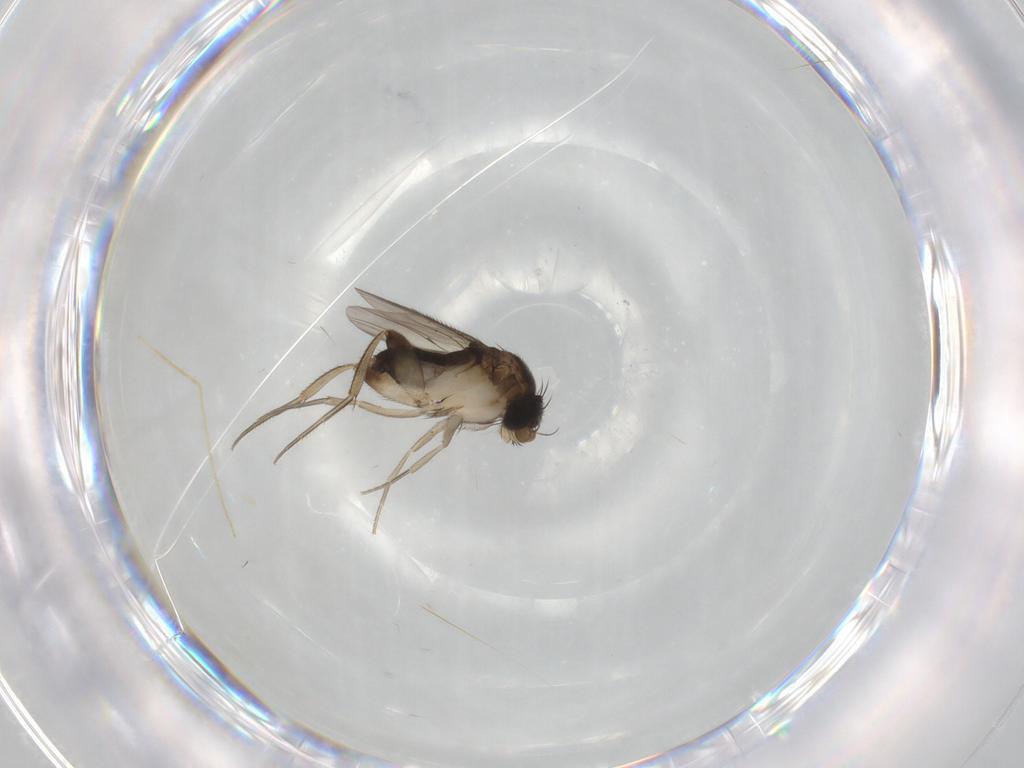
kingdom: Animalia
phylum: Arthropoda
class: Insecta
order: Diptera
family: Phoridae
